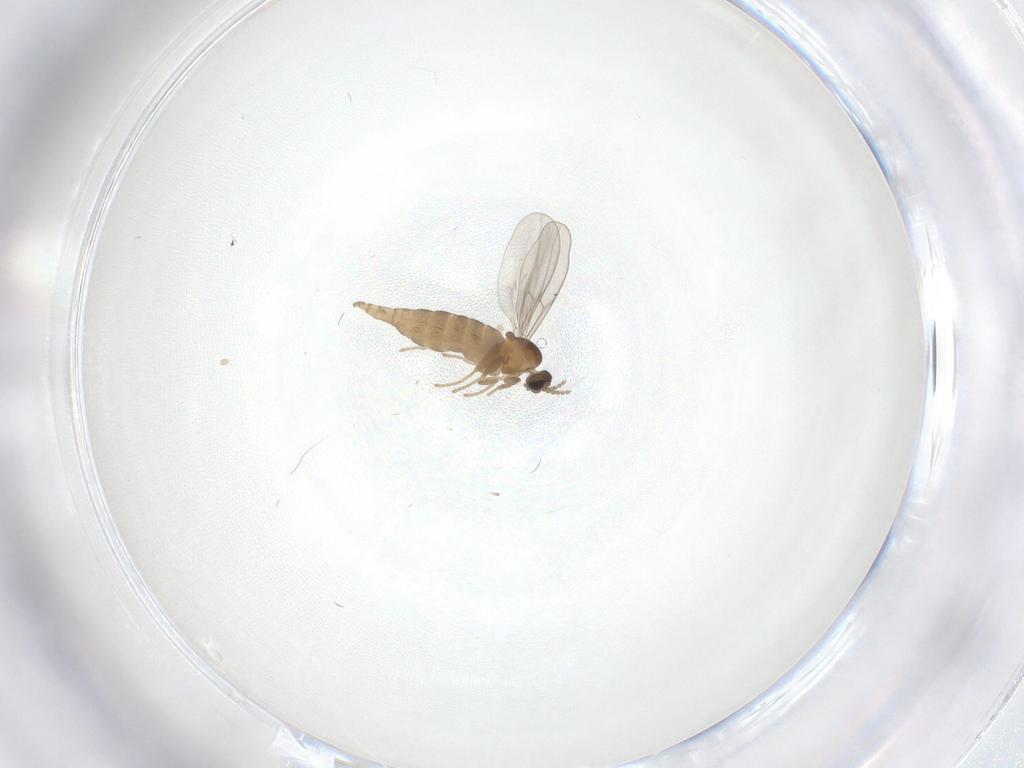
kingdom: Animalia
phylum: Arthropoda
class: Insecta
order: Diptera
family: Cecidomyiidae
